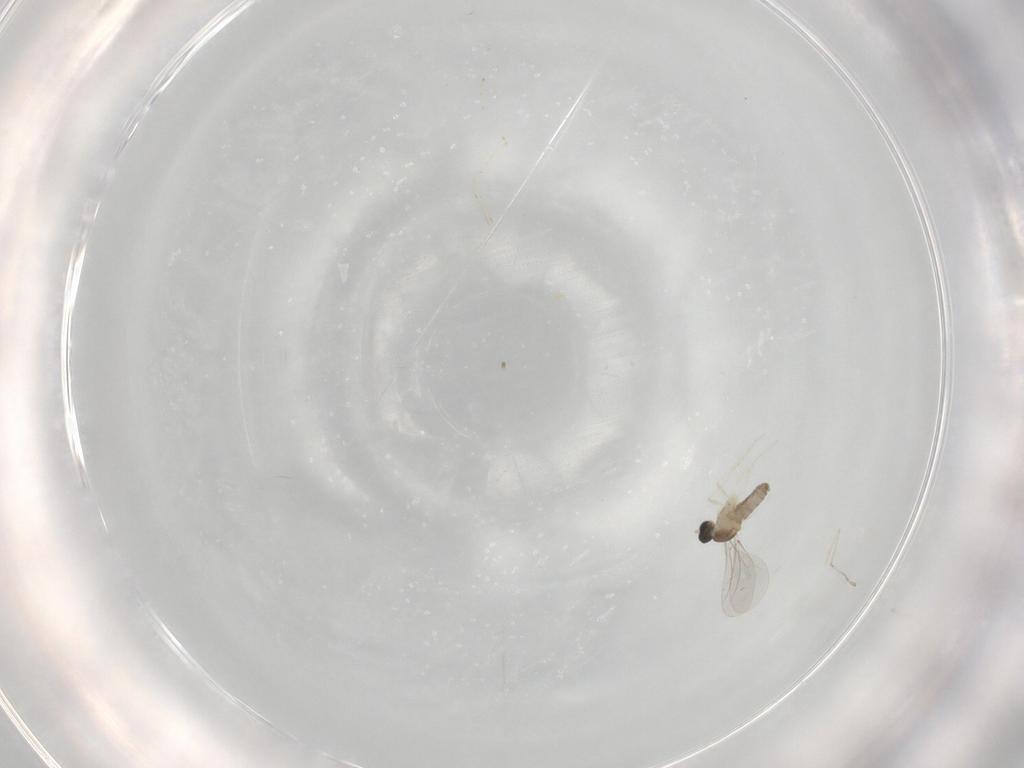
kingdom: Animalia
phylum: Arthropoda
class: Insecta
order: Diptera
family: Cecidomyiidae
